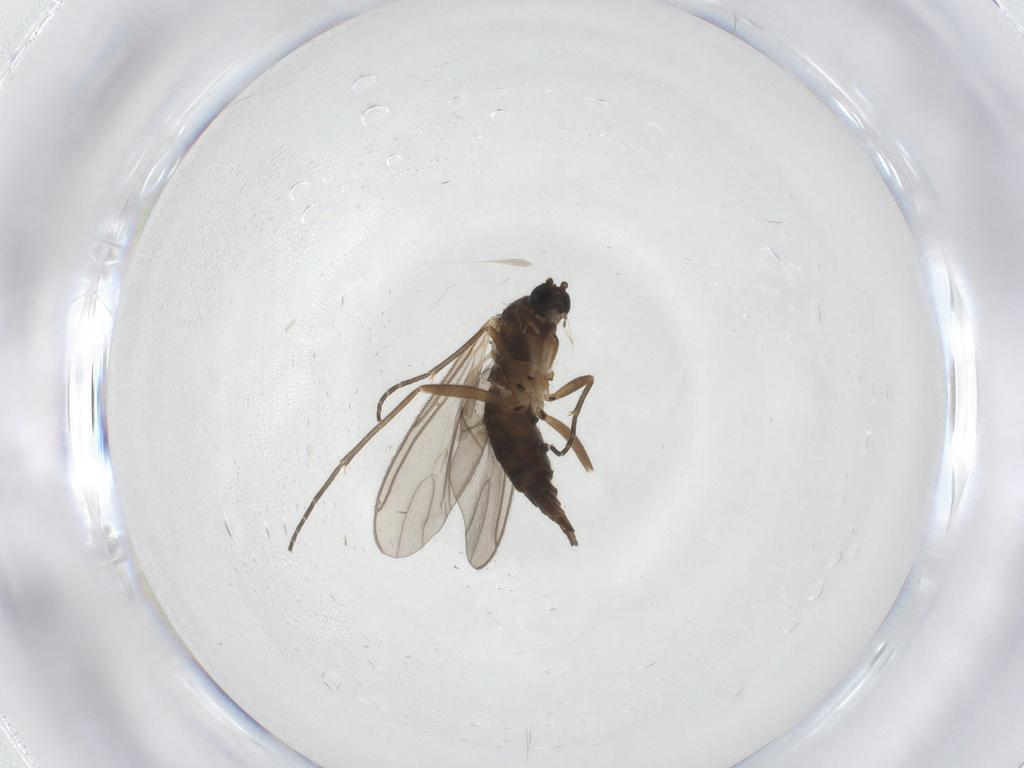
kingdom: Animalia
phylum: Arthropoda
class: Insecta
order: Diptera
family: Sciaridae
